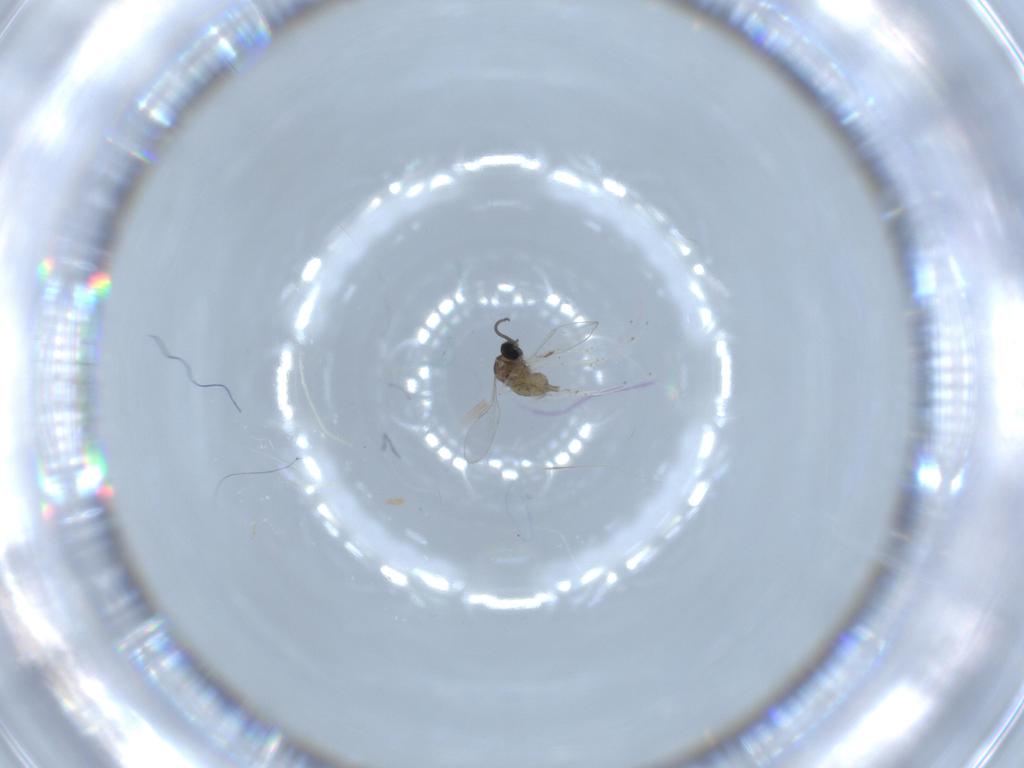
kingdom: Animalia
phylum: Arthropoda
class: Insecta
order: Diptera
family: Cecidomyiidae
